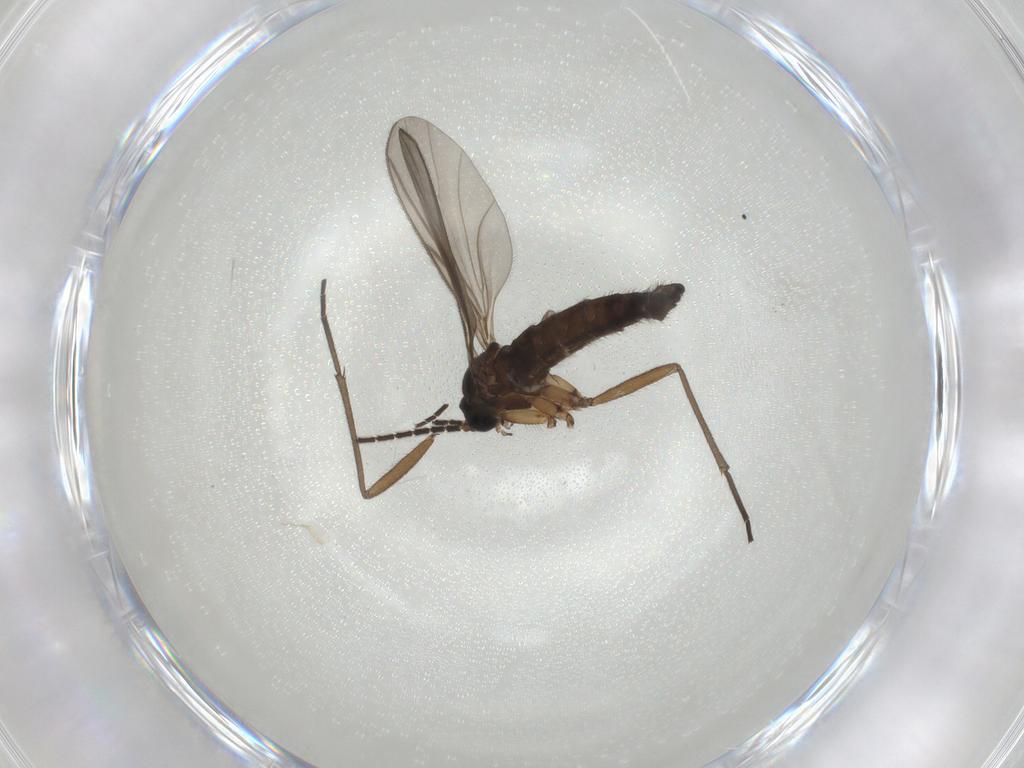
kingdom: Animalia
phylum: Arthropoda
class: Insecta
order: Diptera
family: Sciaridae
